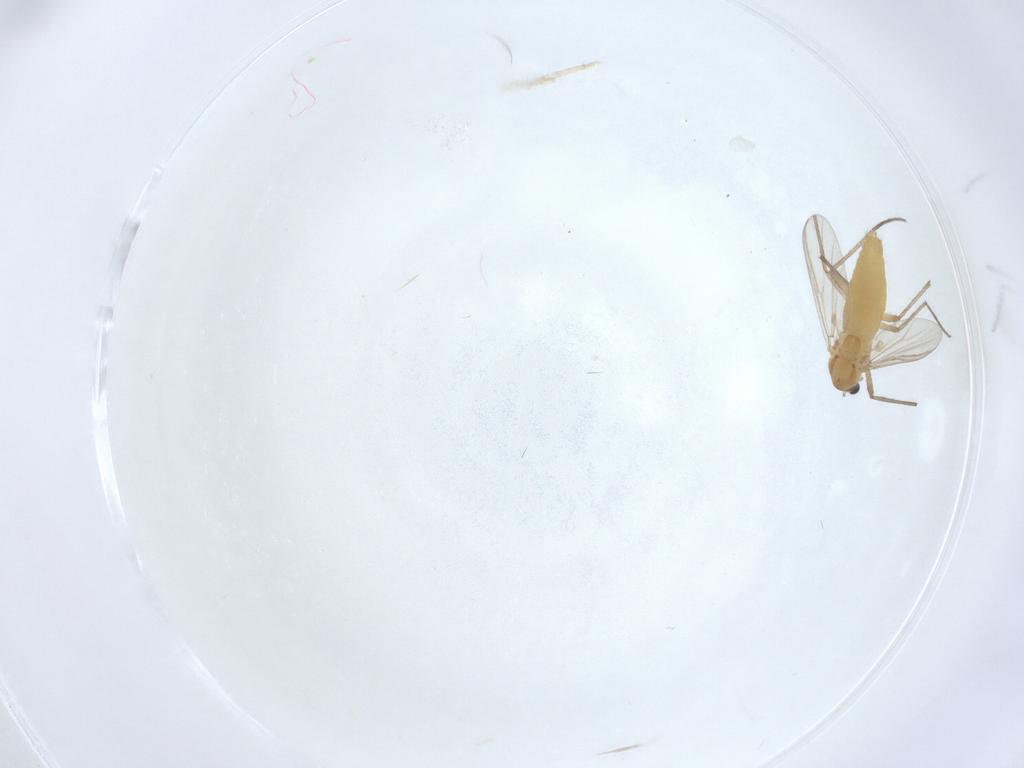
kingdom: Animalia
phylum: Arthropoda
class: Insecta
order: Diptera
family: Chironomidae
